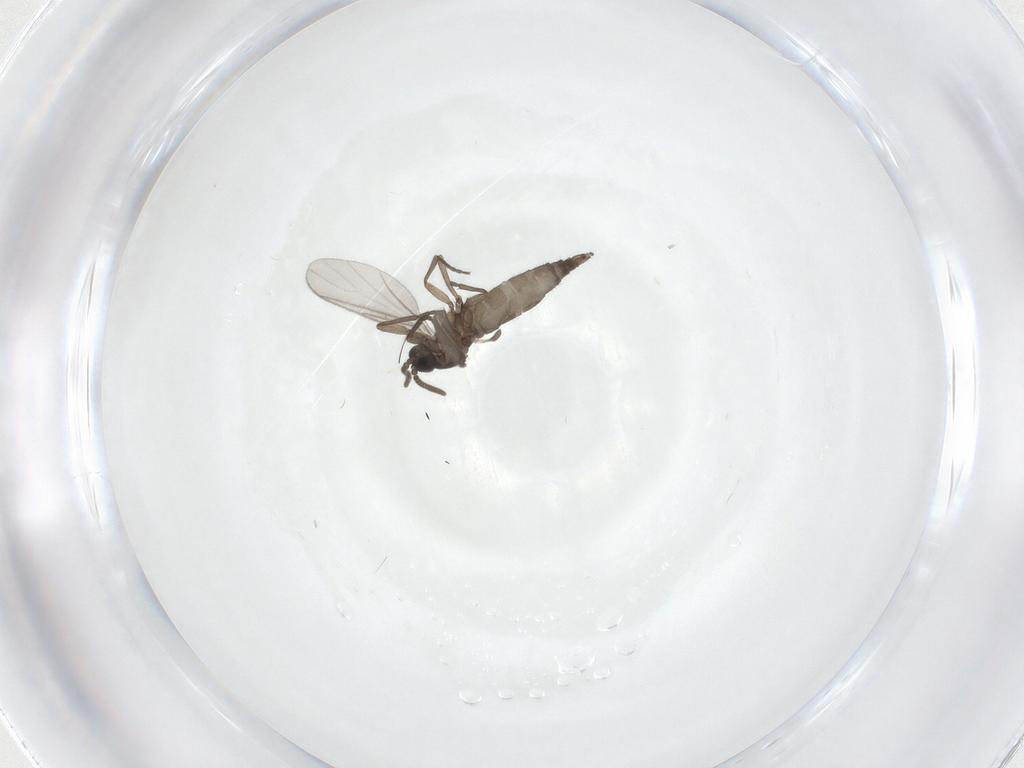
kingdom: Animalia
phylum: Arthropoda
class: Insecta
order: Diptera
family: Sciaridae
